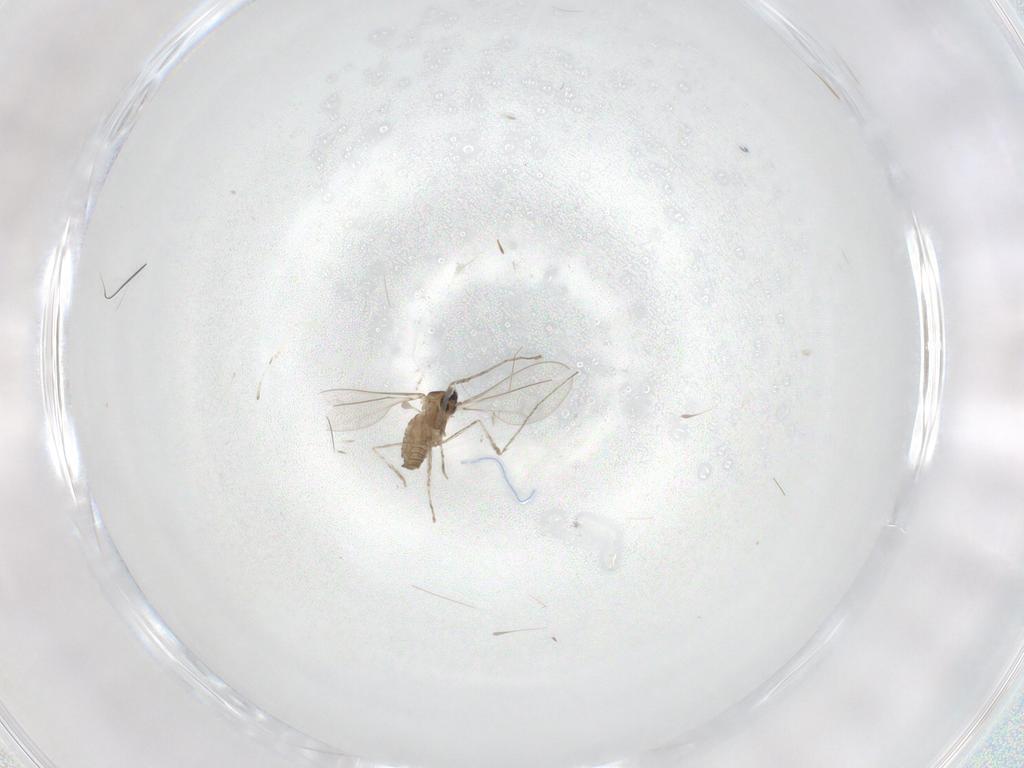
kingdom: Animalia
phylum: Arthropoda
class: Insecta
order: Diptera
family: Cecidomyiidae
